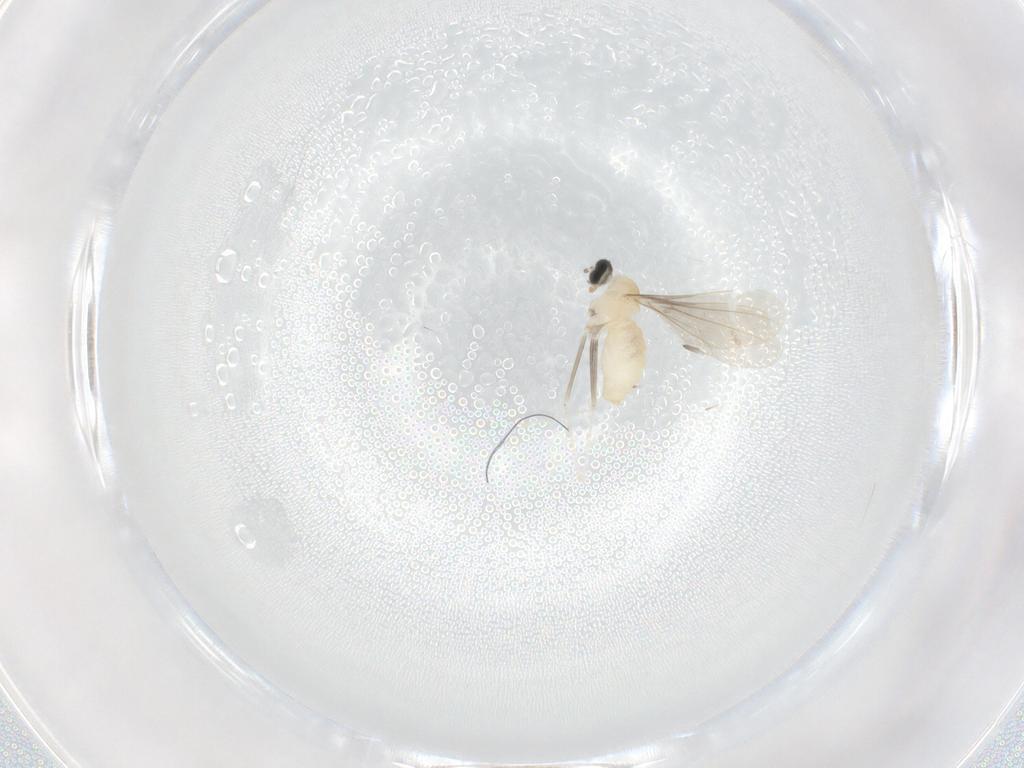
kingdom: Animalia
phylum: Arthropoda
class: Insecta
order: Diptera
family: Cecidomyiidae
